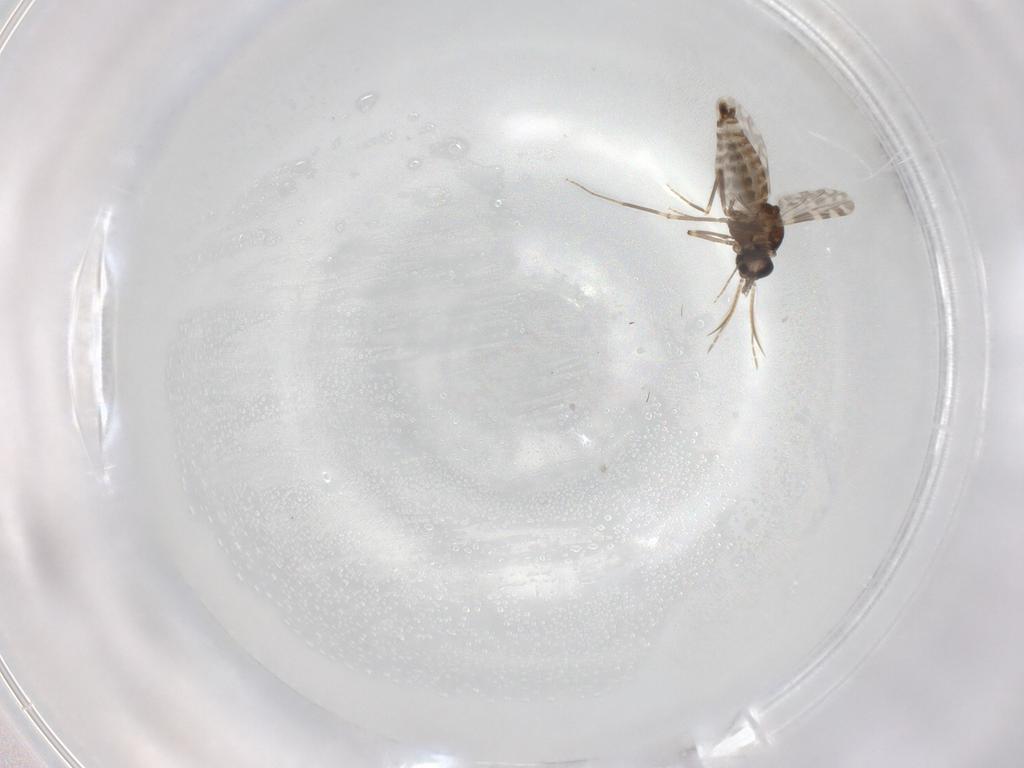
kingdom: Animalia
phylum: Arthropoda
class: Insecta
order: Diptera
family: Ceratopogonidae
